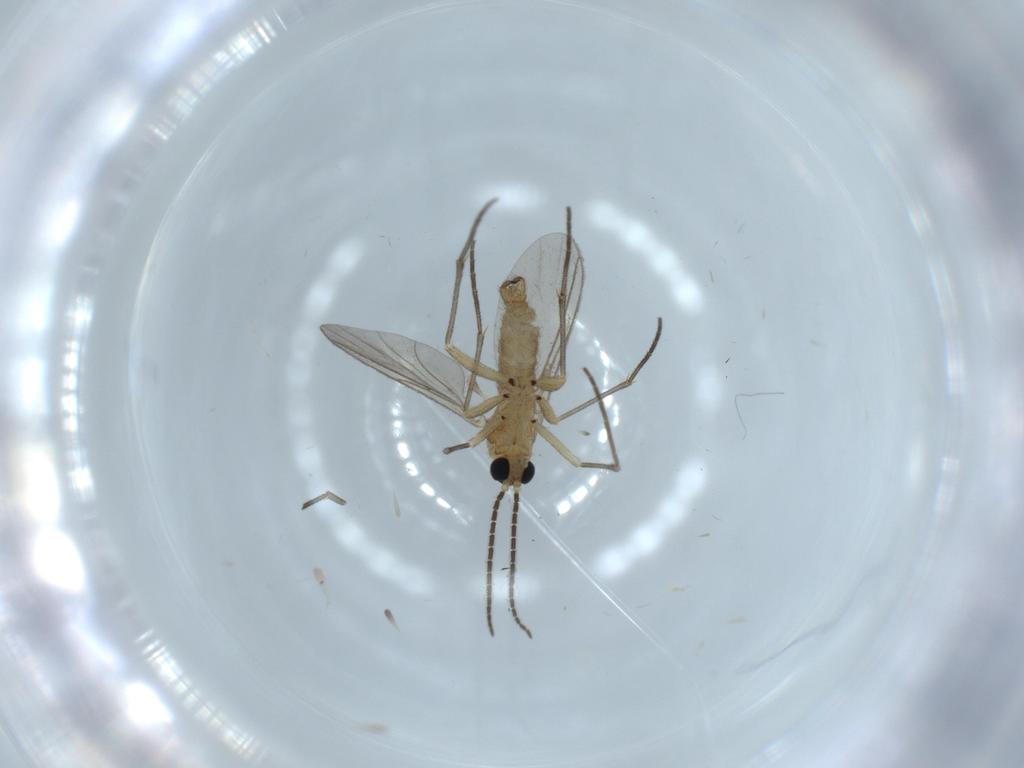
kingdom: Animalia
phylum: Arthropoda
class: Insecta
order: Diptera
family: Sciaridae
